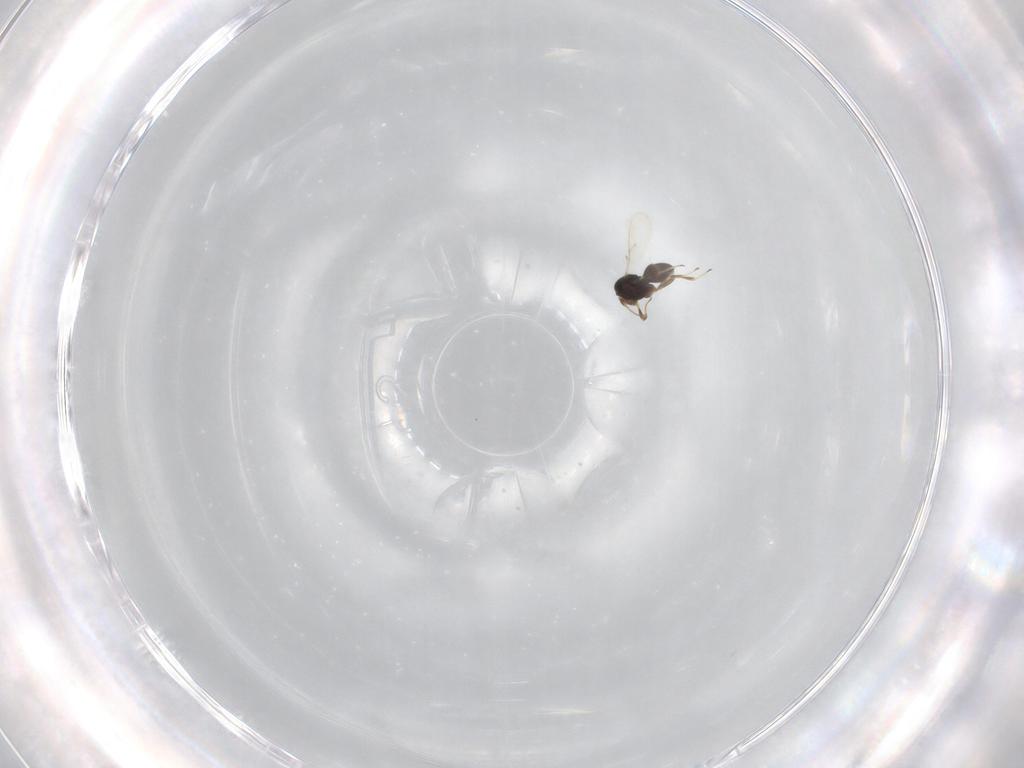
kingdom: Animalia
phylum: Arthropoda
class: Insecta
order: Hymenoptera
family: Scelionidae
